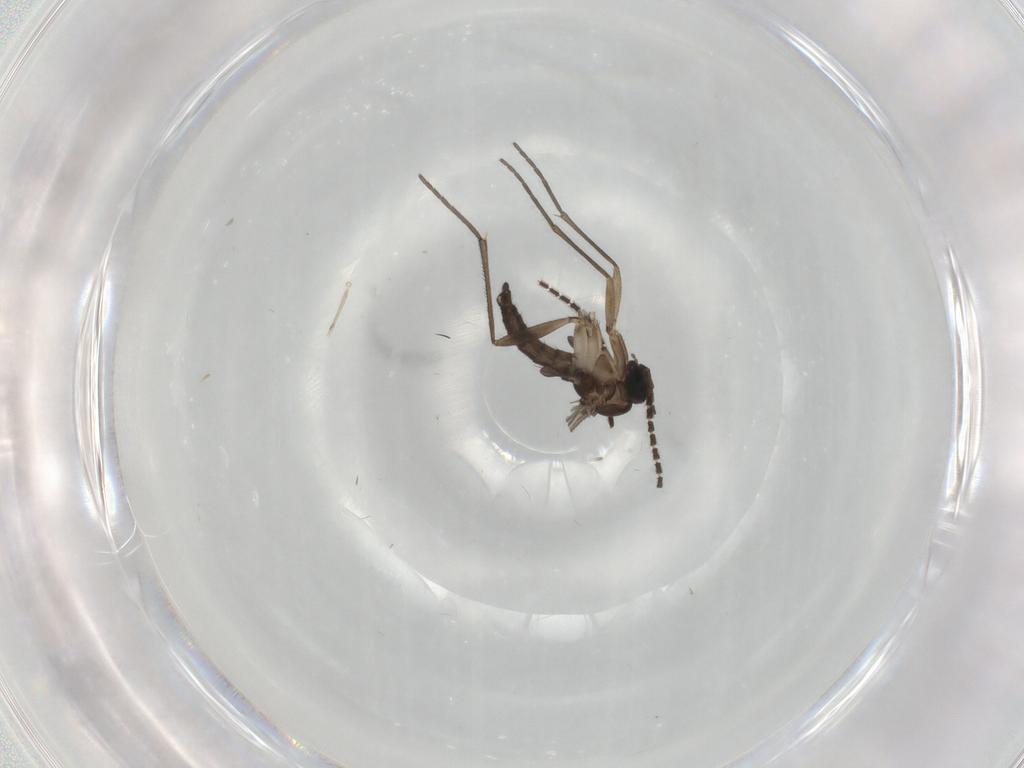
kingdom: Animalia
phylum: Arthropoda
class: Insecta
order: Diptera
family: Sciaridae
